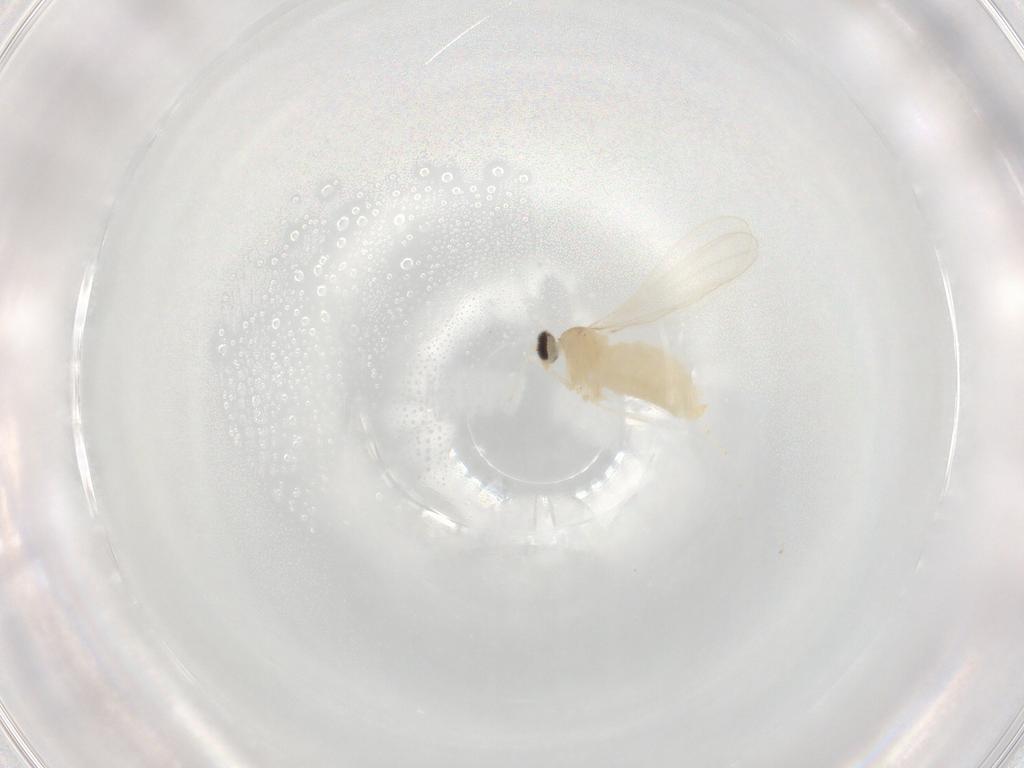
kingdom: Animalia
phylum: Arthropoda
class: Insecta
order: Diptera
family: Cecidomyiidae
